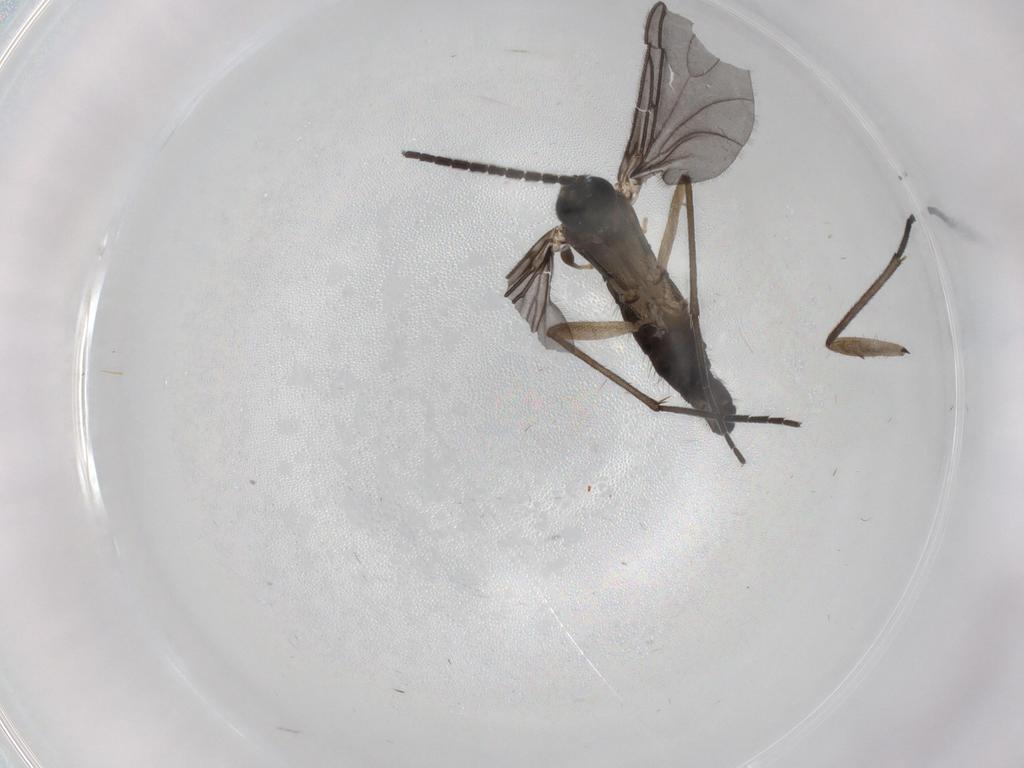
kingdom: Animalia
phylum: Arthropoda
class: Insecta
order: Diptera
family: Sciaridae
